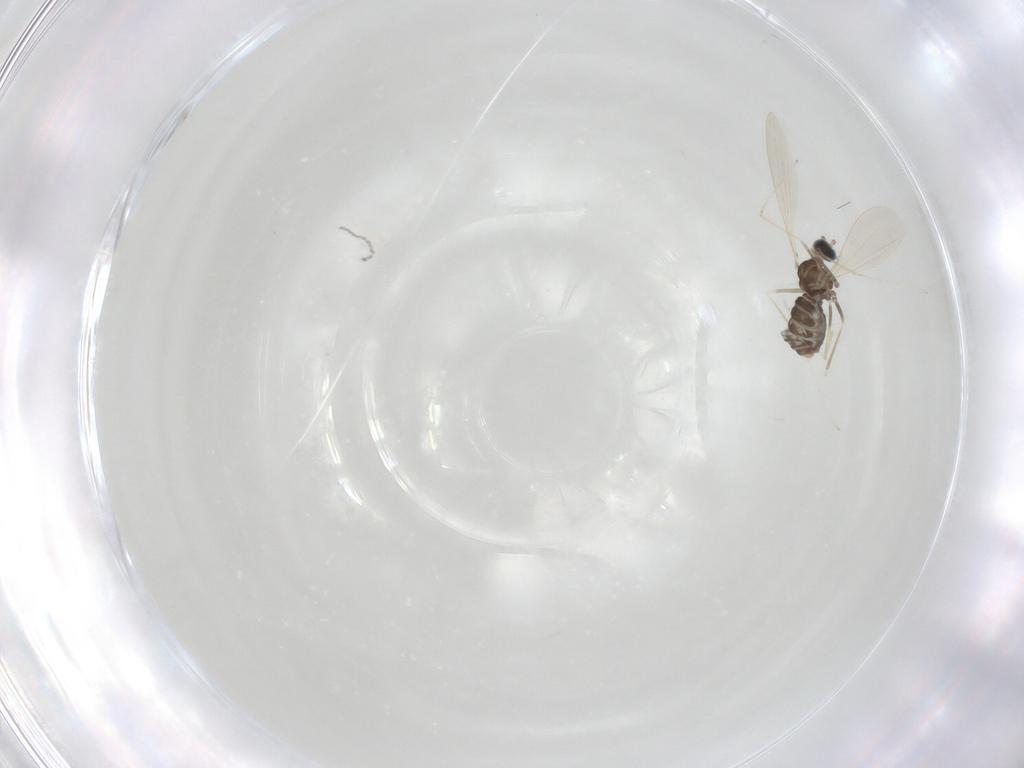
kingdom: Animalia
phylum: Arthropoda
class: Insecta
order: Diptera
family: Cecidomyiidae
